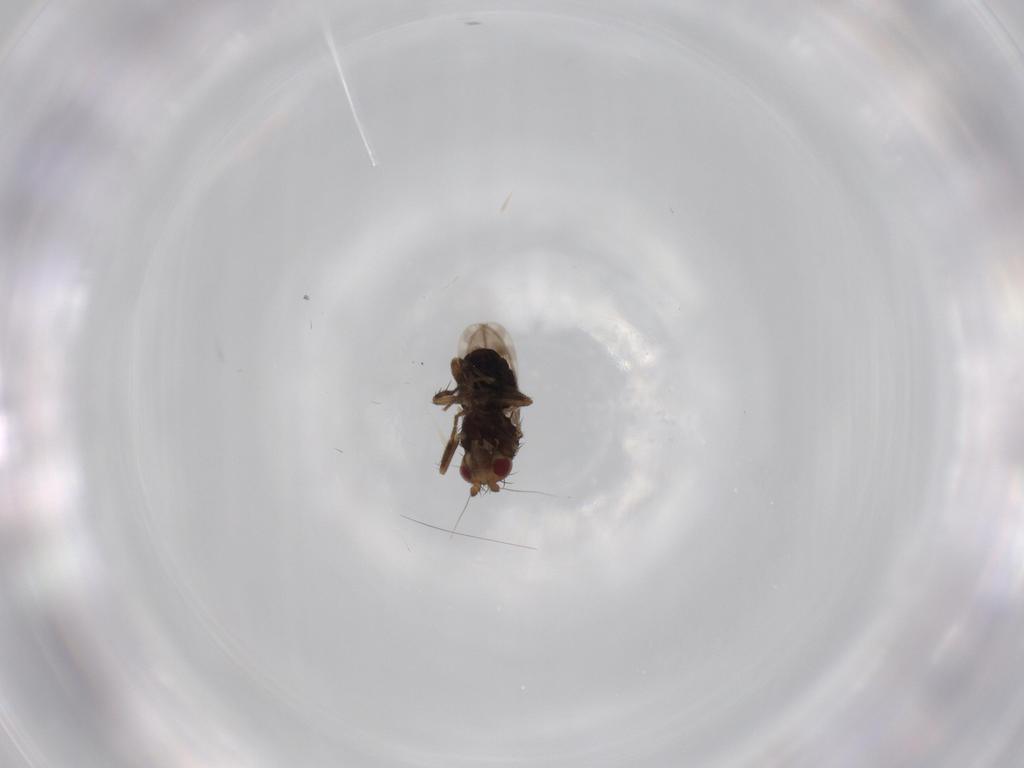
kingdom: Animalia
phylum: Arthropoda
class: Insecta
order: Diptera
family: Sphaeroceridae
